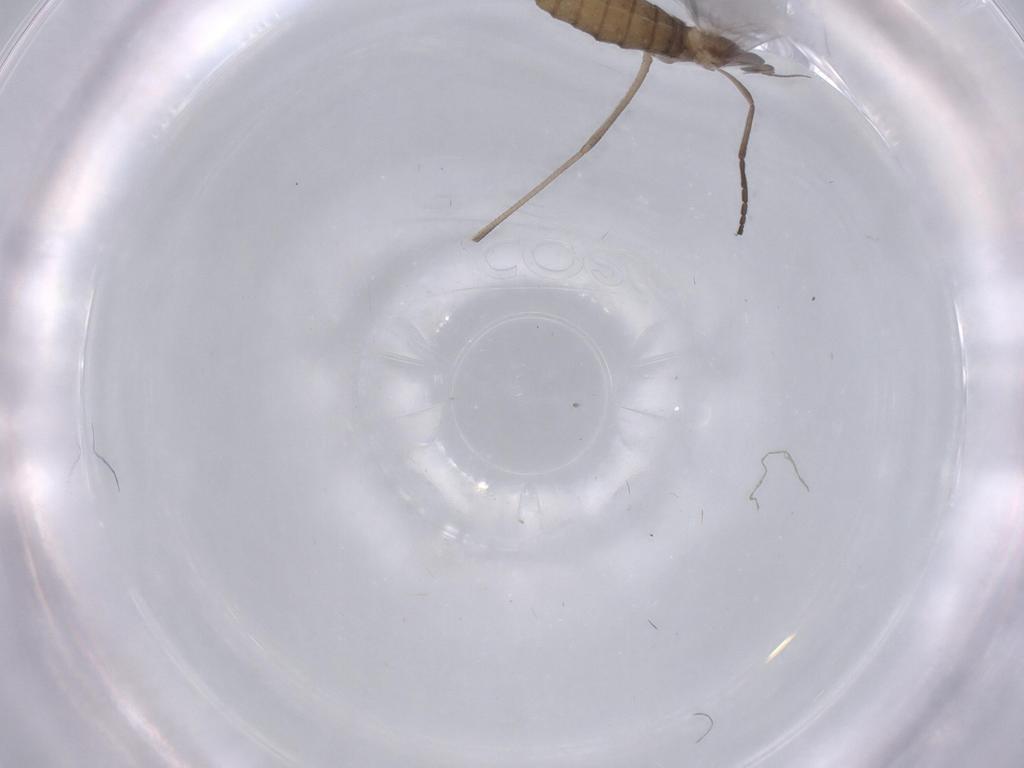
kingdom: Animalia
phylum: Arthropoda
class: Insecta
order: Diptera
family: Cecidomyiidae
